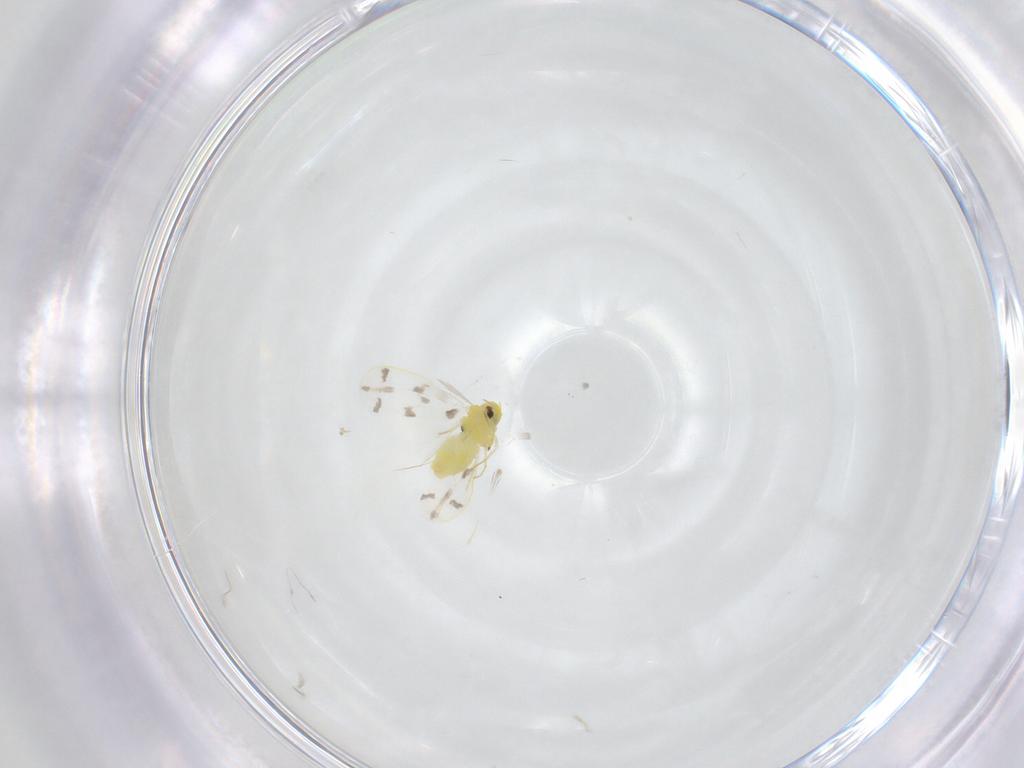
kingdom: Animalia
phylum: Arthropoda
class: Insecta
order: Hemiptera
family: Aleyrodidae
